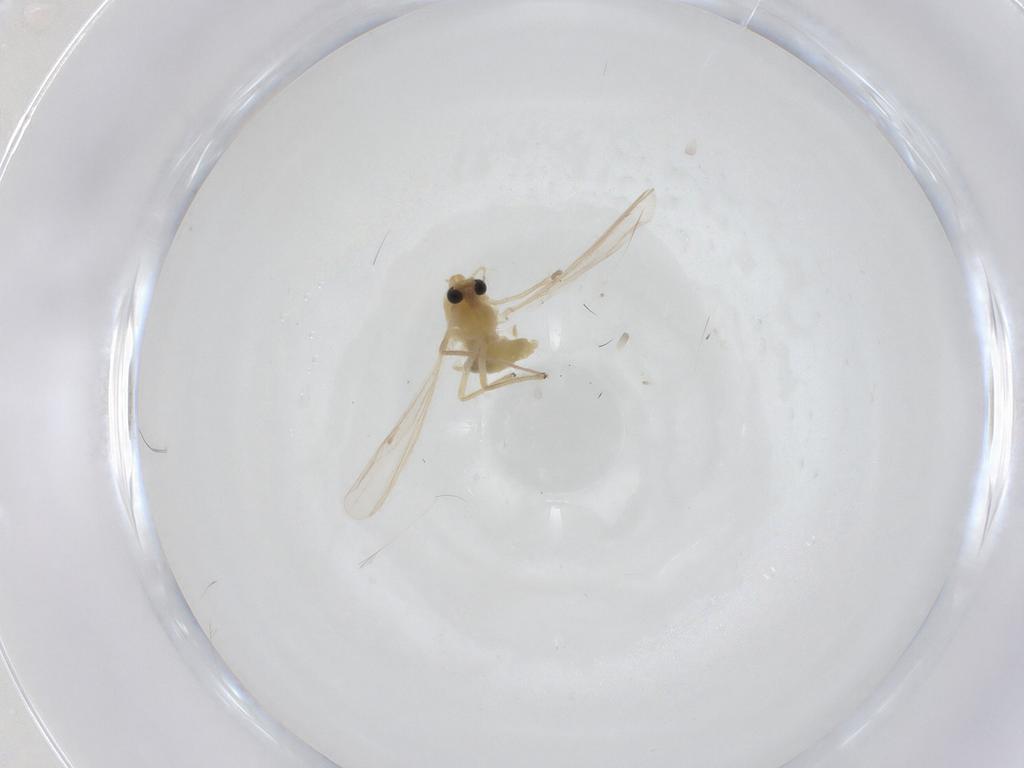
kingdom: Animalia
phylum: Arthropoda
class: Insecta
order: Diptera
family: Chironomidae
